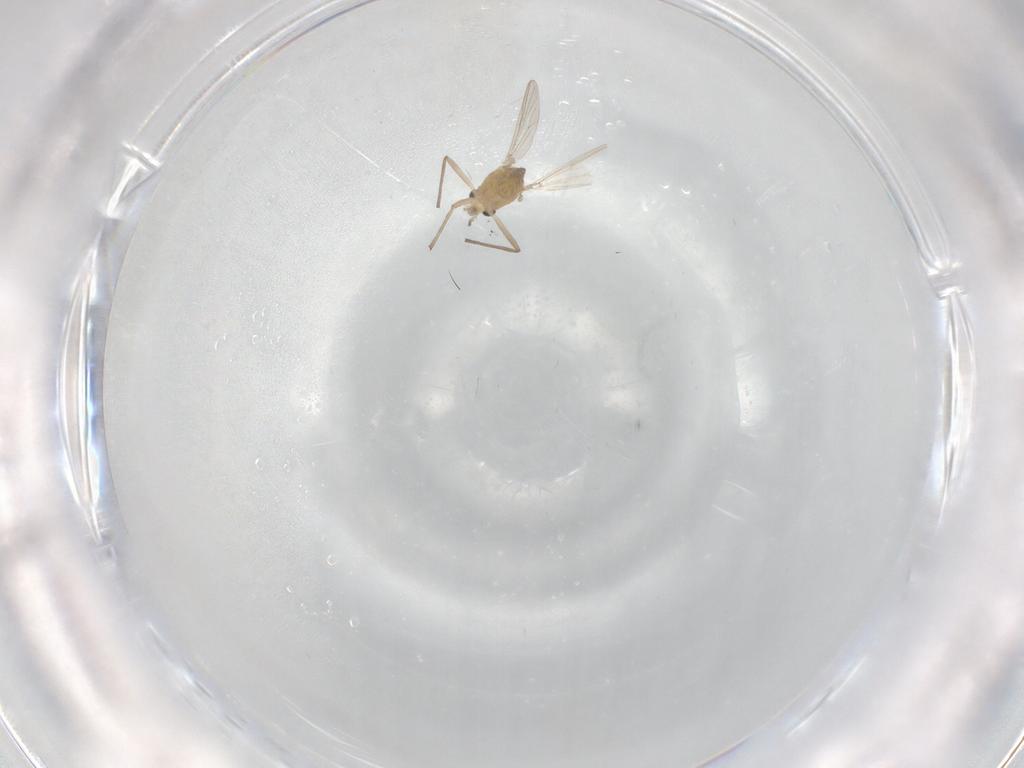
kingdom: Animalia
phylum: Arthropoda
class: Insecta
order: Diptera
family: Chironomidae
